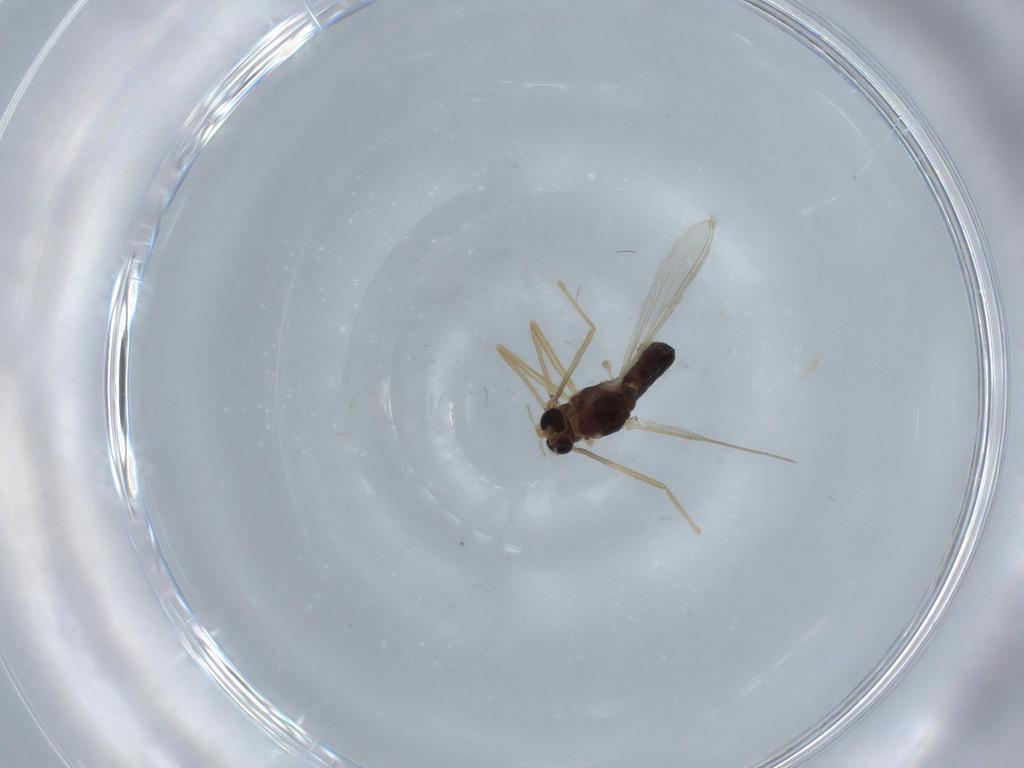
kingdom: Animalia
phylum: Arthropoda
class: Insecta
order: Diptera
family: Chironomidae
